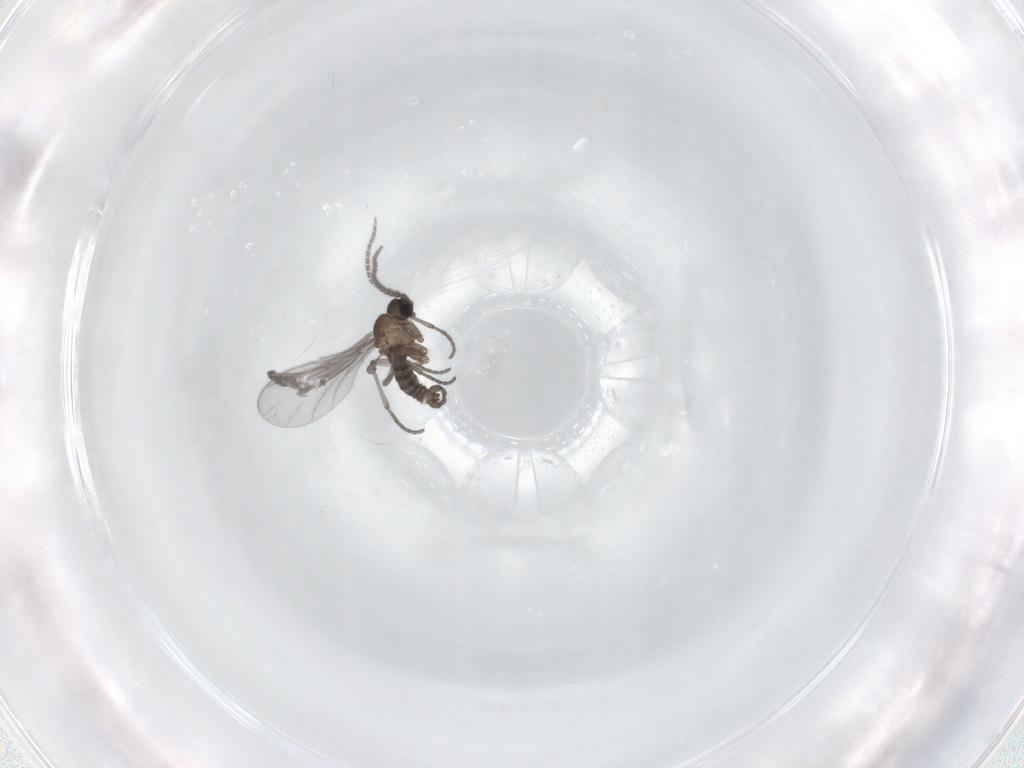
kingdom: Animalia
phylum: Arthropoda
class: Insecta
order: Diptera
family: Sciaridae
